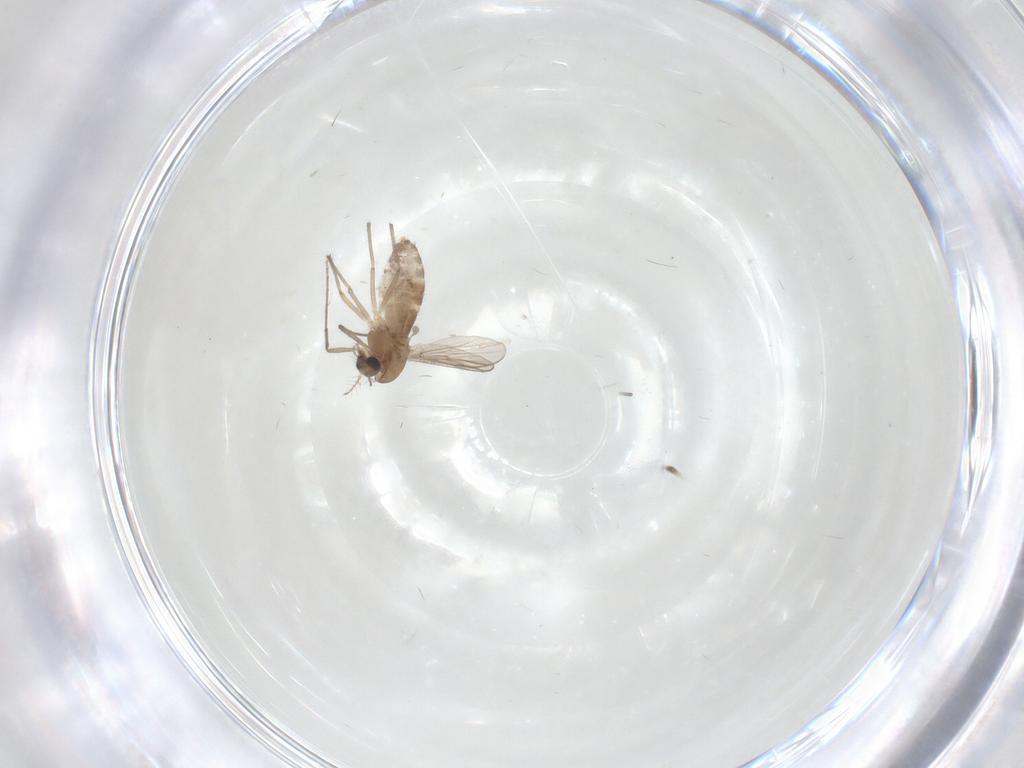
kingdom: Animalia
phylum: Arthropoda
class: Insecta
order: Diptera
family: Chironomidae
